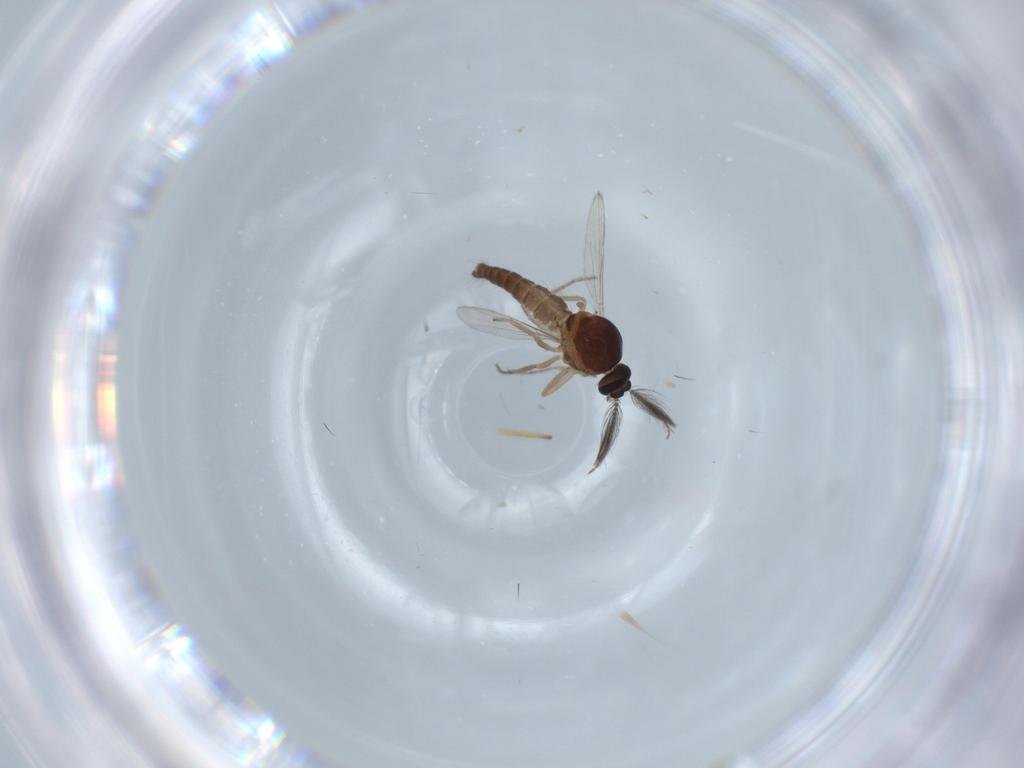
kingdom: Animalia
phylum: Arthropoda
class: Insecta
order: Diptera
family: Ceratopogonidae
